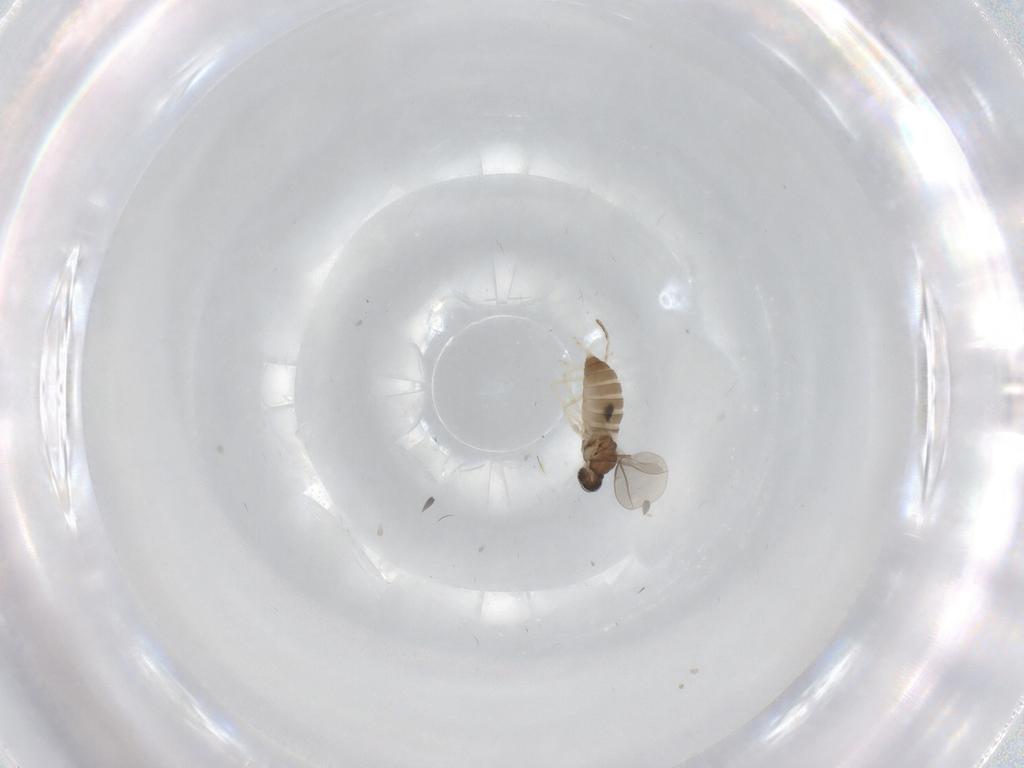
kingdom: Animalia
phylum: Arthropoda
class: Insecta
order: Diptera
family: Cecidomyiidae
